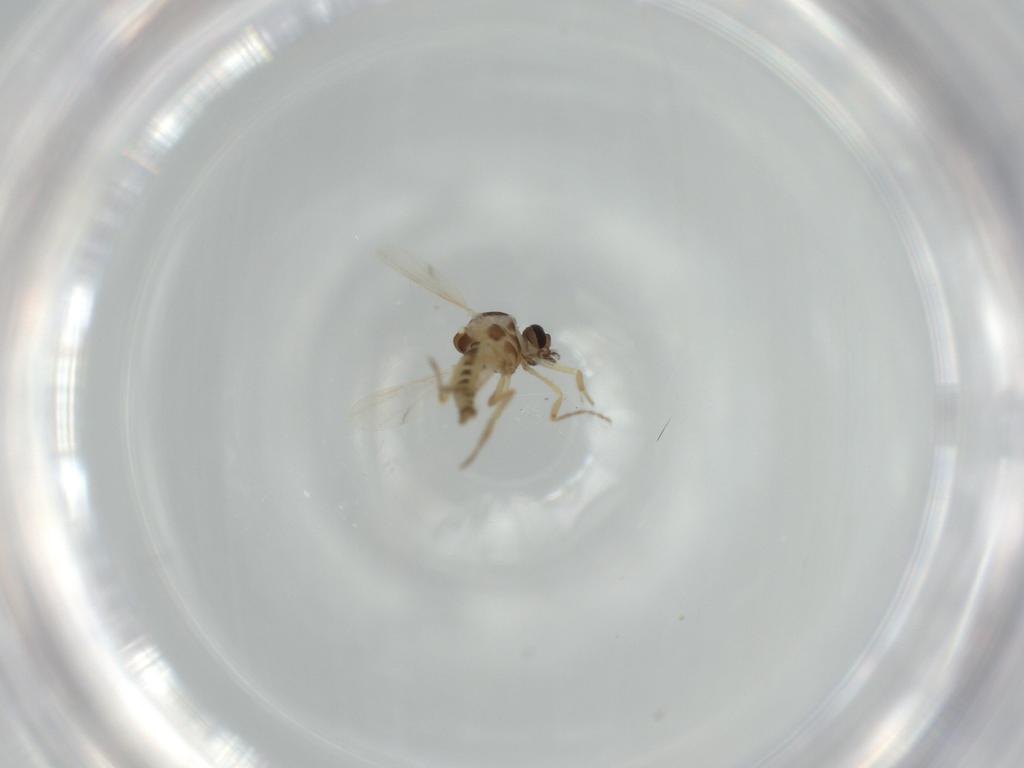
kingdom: Animalia
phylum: Arthropoda
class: Insecta
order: Diptera
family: Ceratopogonidae
